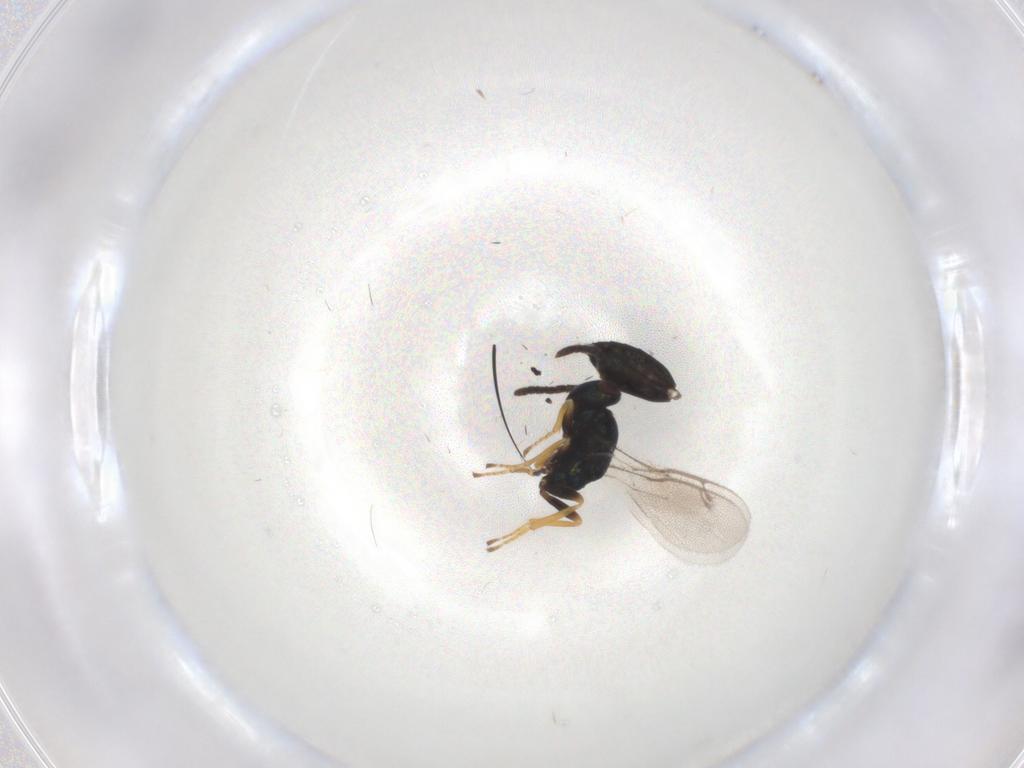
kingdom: Animalia
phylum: Arthropoda
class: Insecta
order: Hymenoptera
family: Pteromalidae
